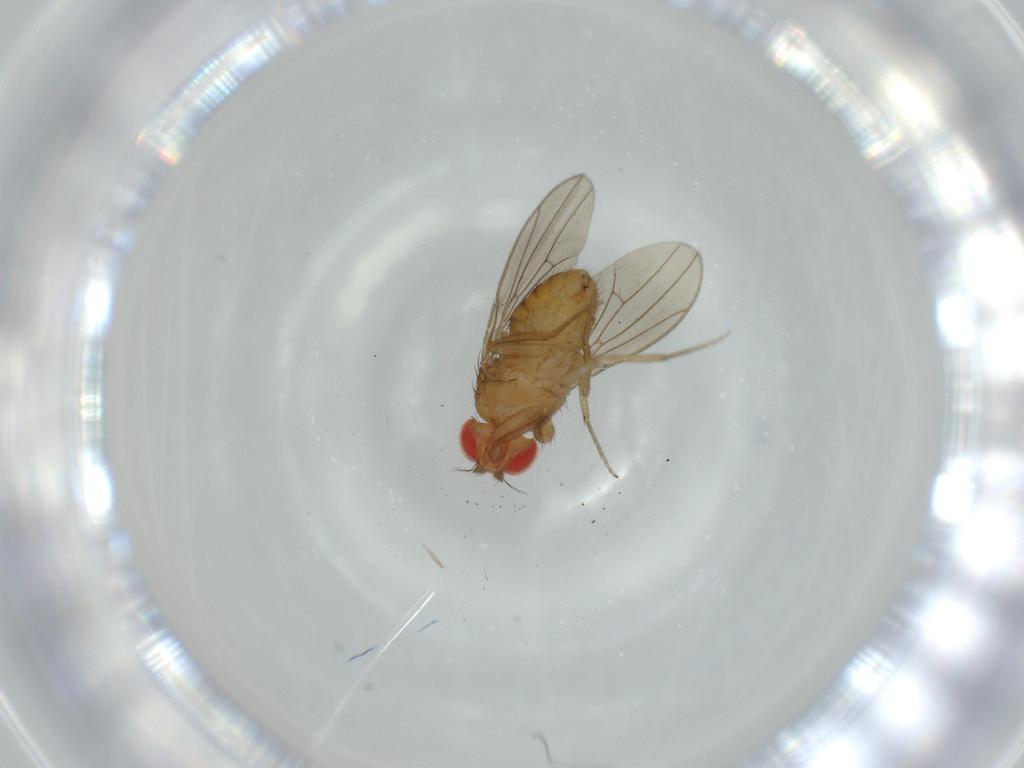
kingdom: Animalia
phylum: Arthropoda
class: Insecta
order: Diptera
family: Drosophilidae
